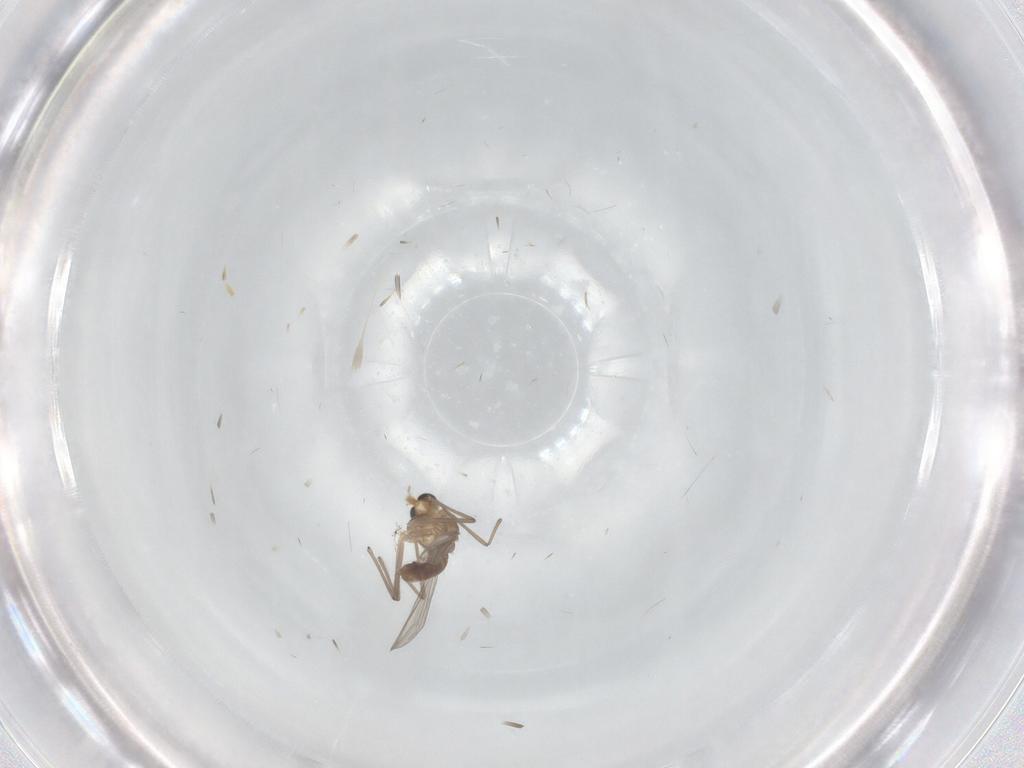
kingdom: Animalia
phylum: Arthropoda
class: Insecta
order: Diptera
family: Chironomidae
